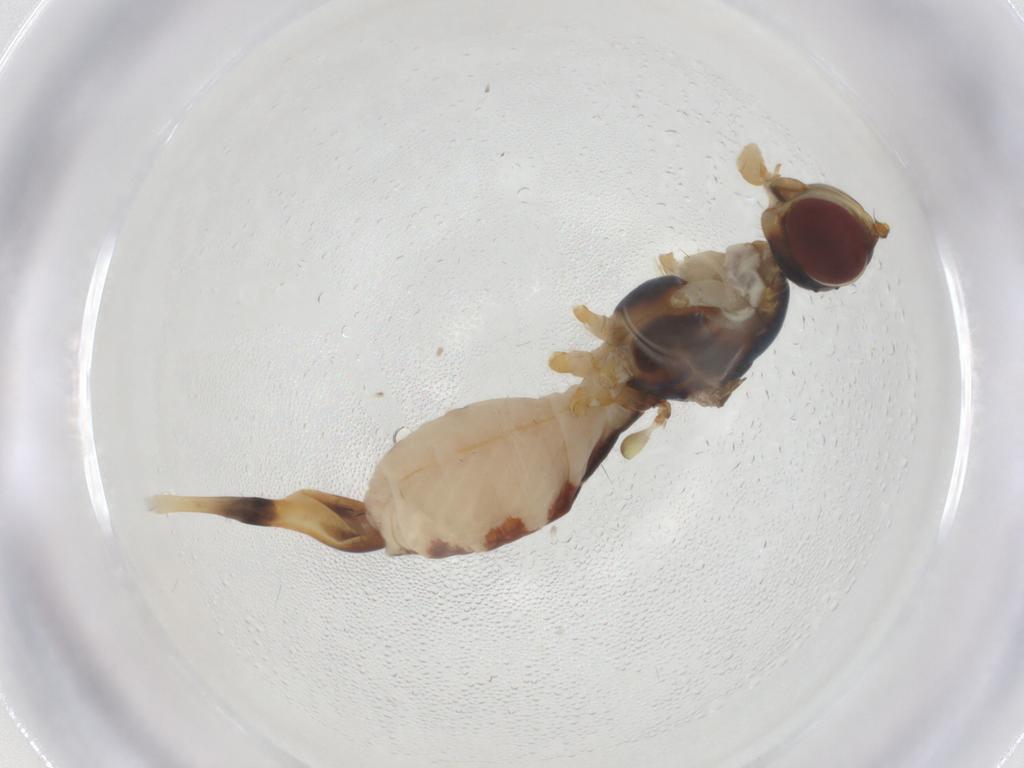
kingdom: Animalia
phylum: Arthropoda
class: Insecta
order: Diptera
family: Micropezidae
